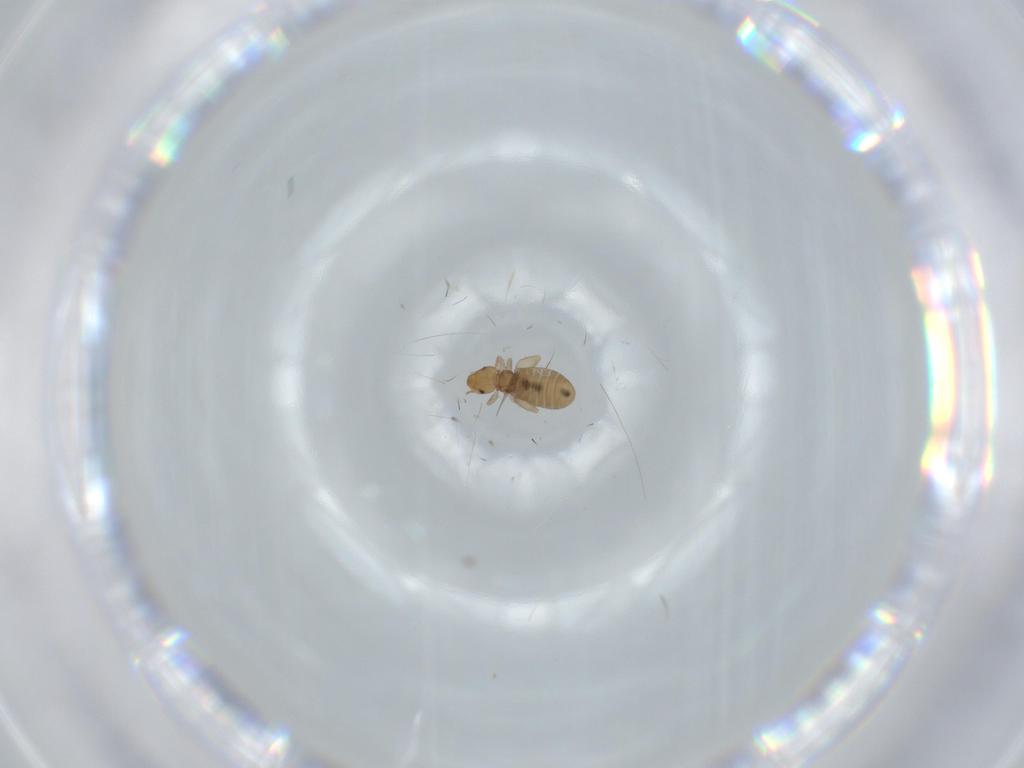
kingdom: Animalia
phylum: Arthropoda
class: Insecta
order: Psocodea
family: Liposcelididae
